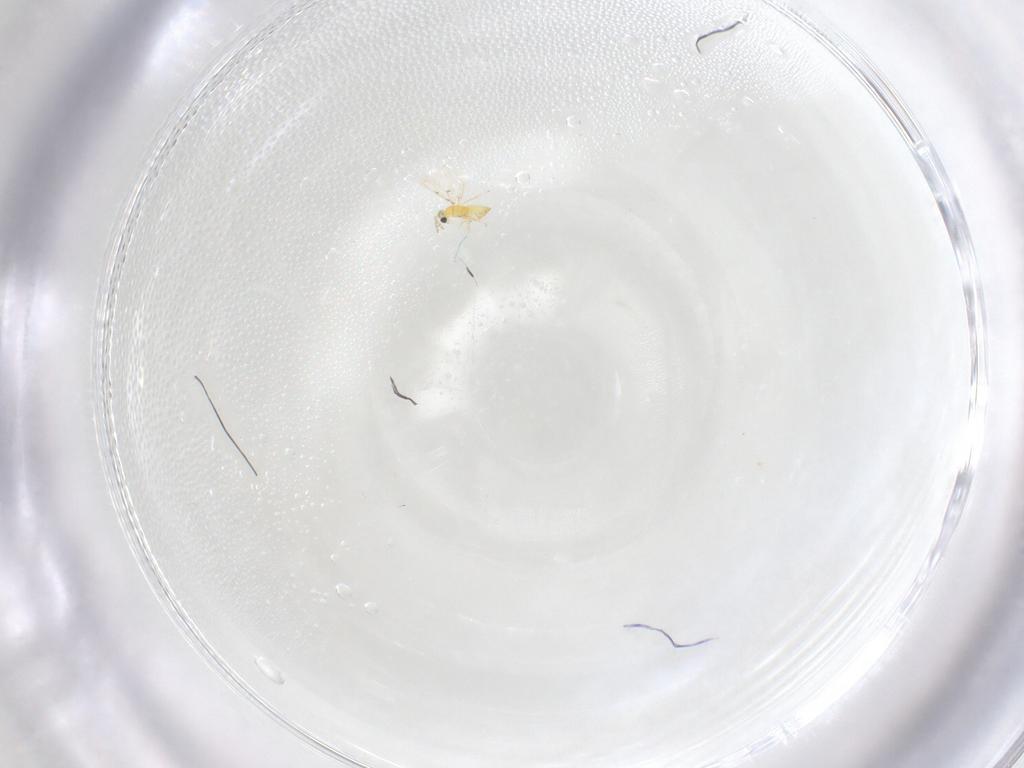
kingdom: Animalia
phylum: Arthropoda
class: Insecta
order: Hymenoptera
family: Trichogrammatidae
